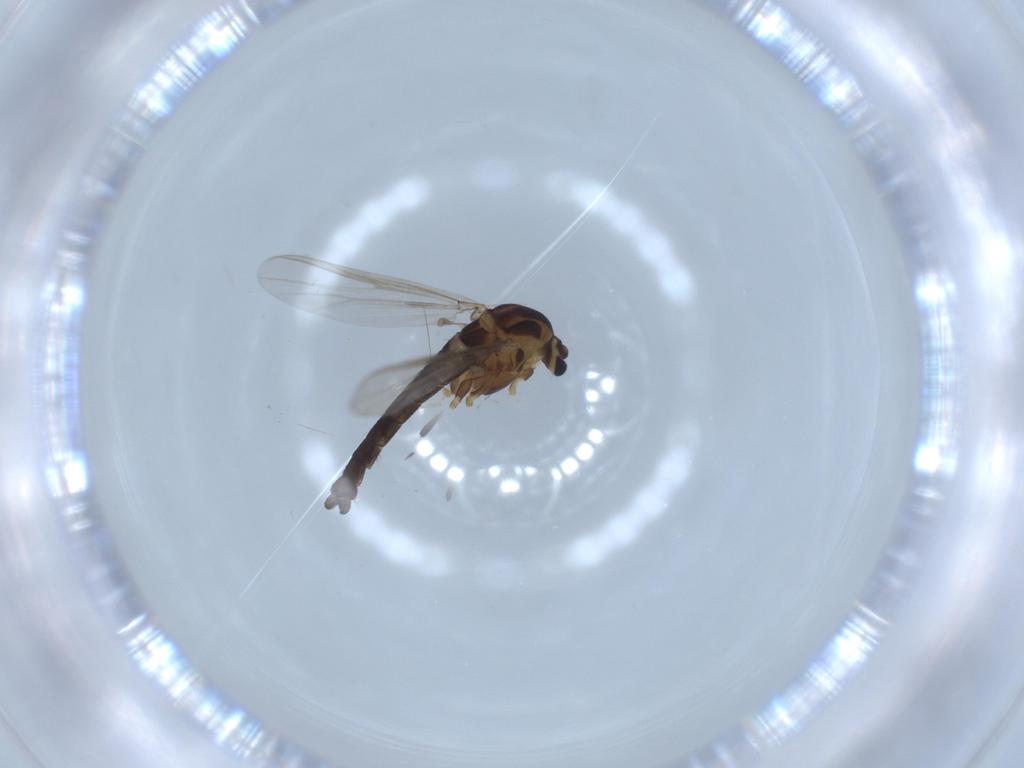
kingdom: Animalia
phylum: Arthropoda
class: Insecta
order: Diptera
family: Chironomidae
